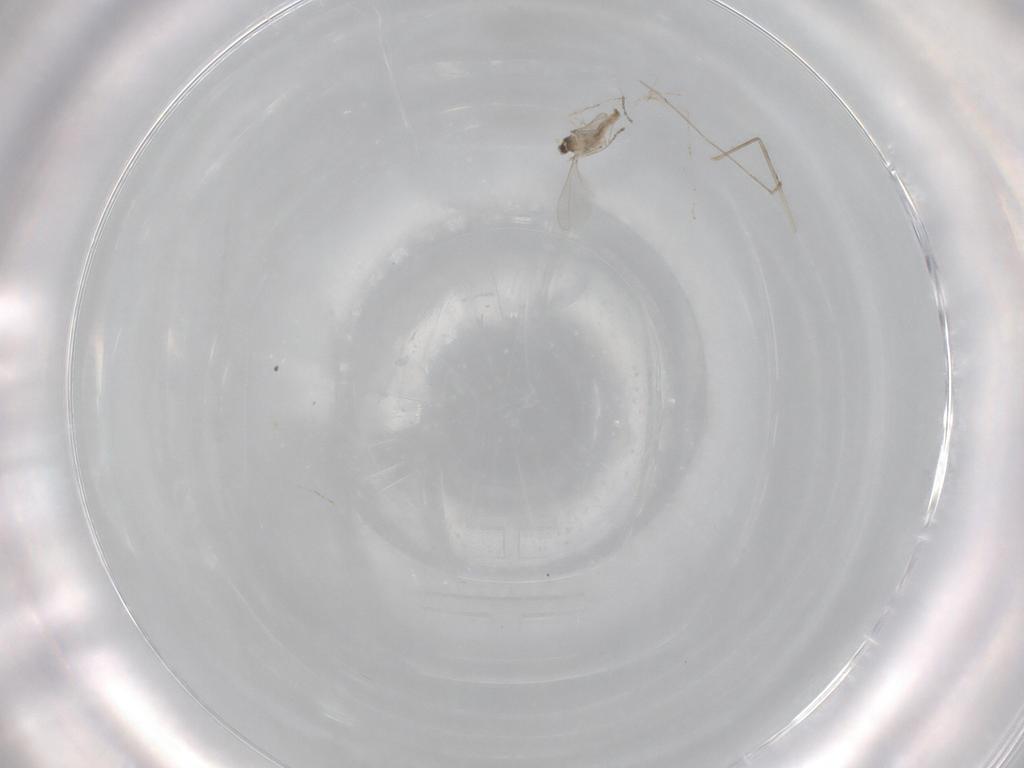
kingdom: Animalia
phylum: Arthropoda
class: Insecta
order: Diptera
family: Cecidomyiidae
